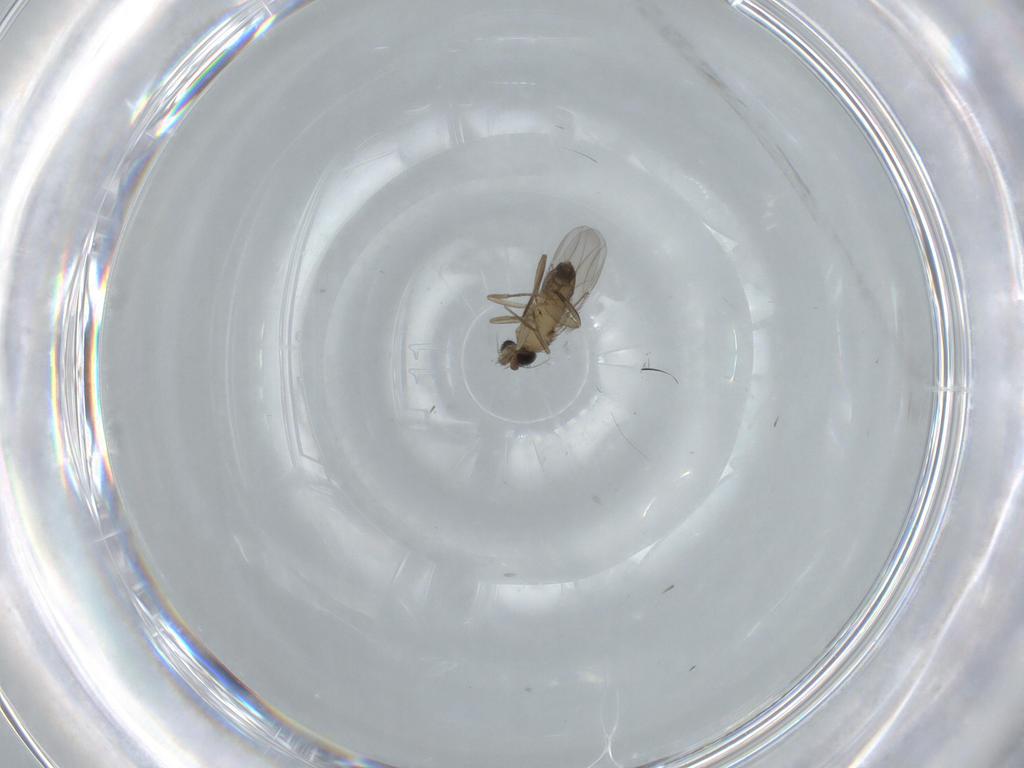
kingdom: Animalia
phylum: Arthropoda
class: Insecta
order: Diptera
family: Phoridae
